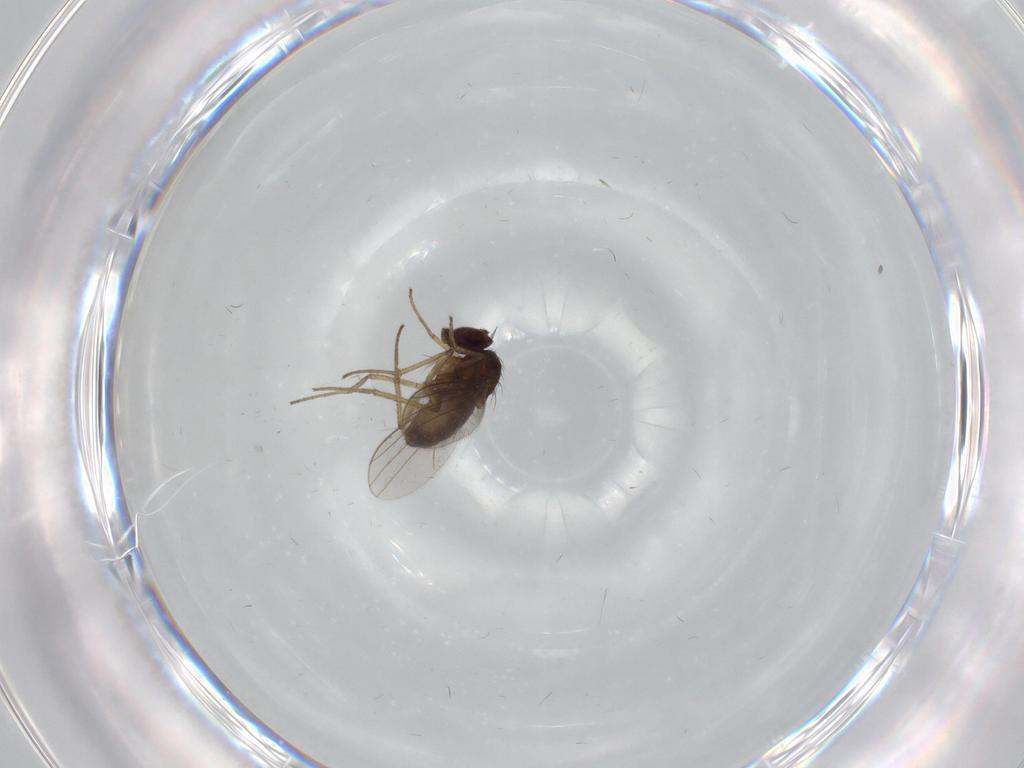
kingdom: Animalia
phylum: Arthropoda
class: Insecta
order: Diptera
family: Dolichopodidae
